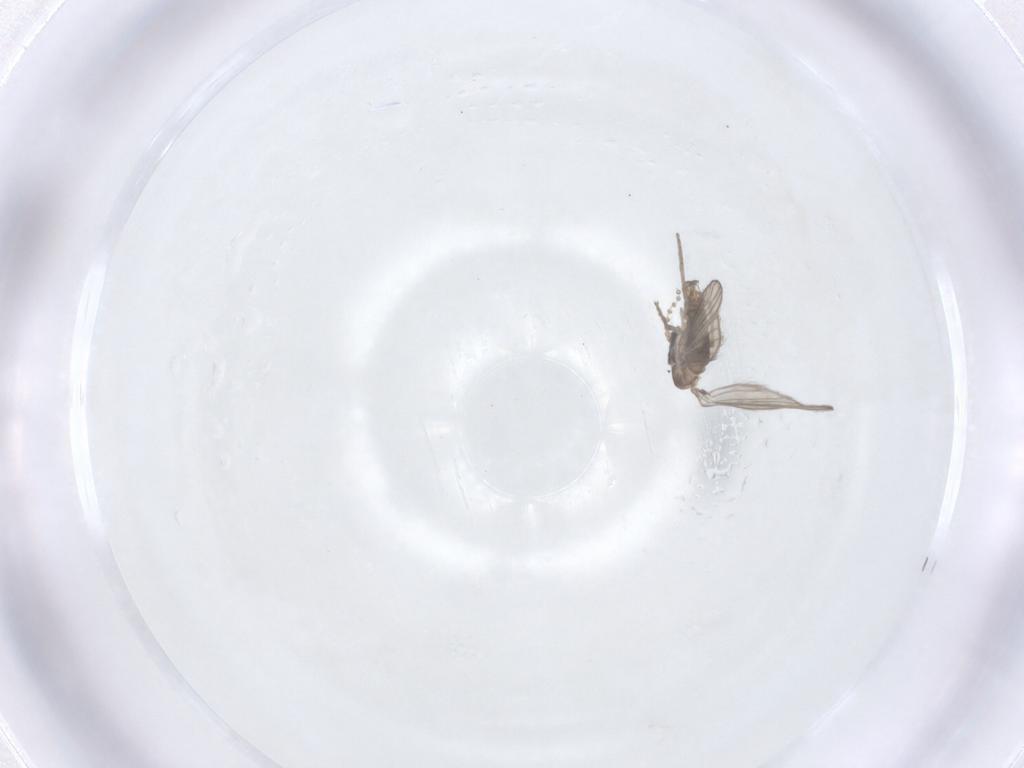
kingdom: Animalia
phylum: Arthropoda
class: Insecta
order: Diptera
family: Psychodidae
